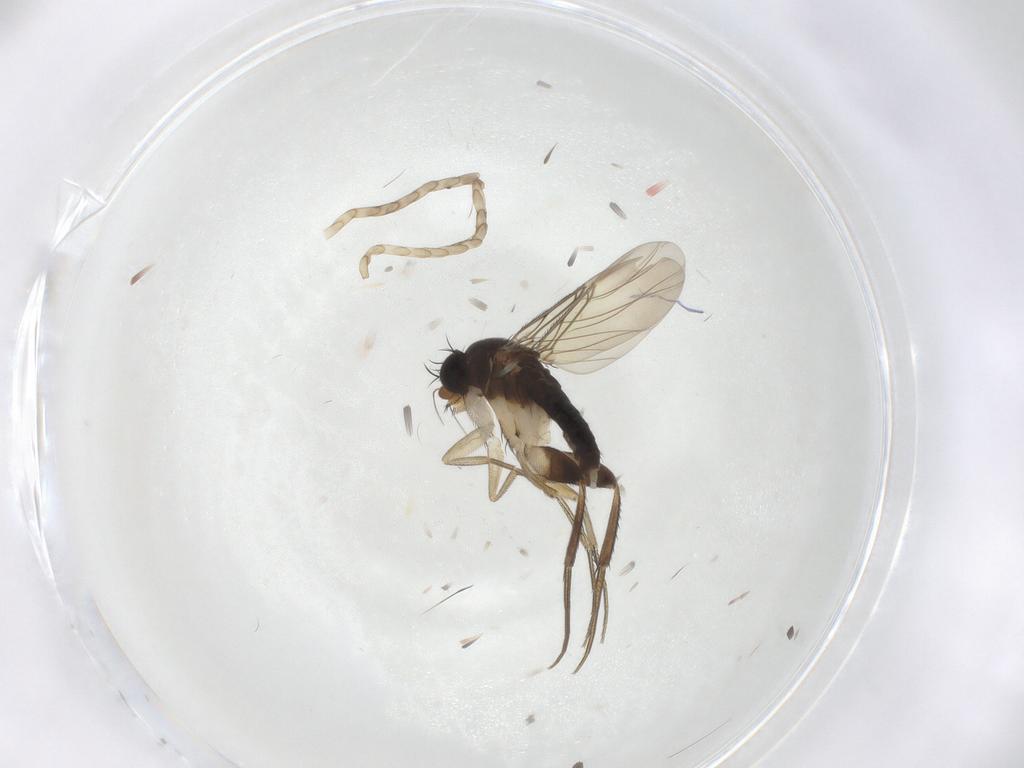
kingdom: Animalia
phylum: Arthropoda
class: Insecta
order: Diptera
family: Phoridae
